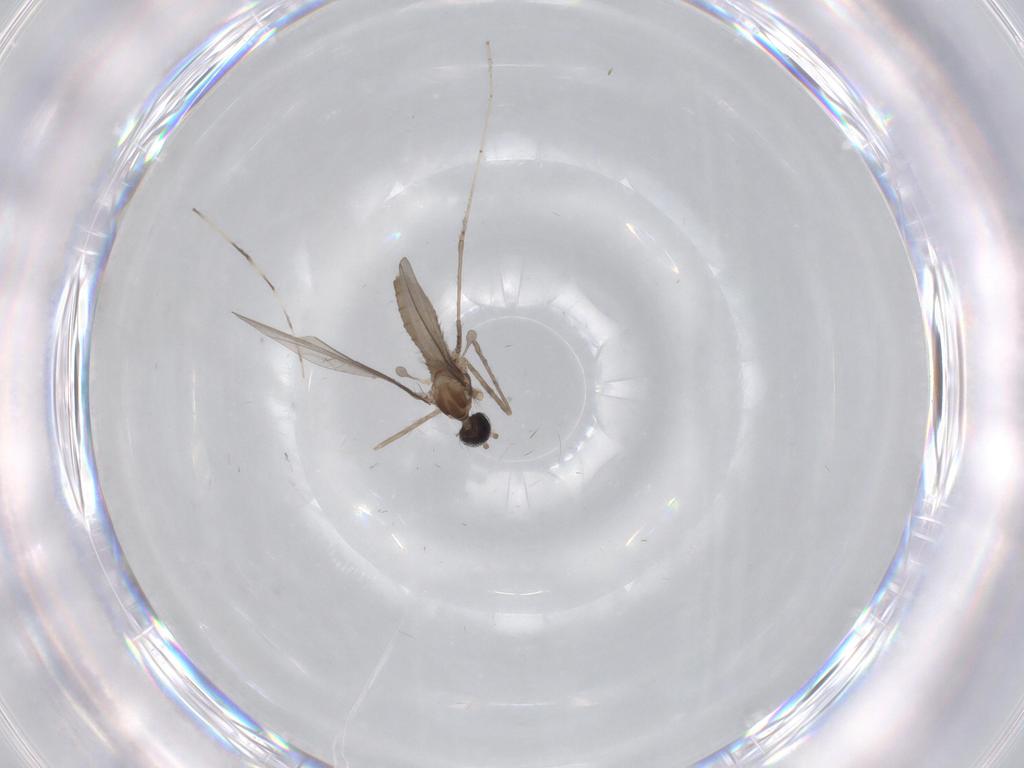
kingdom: Animalia
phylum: Arthropoda
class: Insecta
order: Diptera
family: Cecidomyiidae
